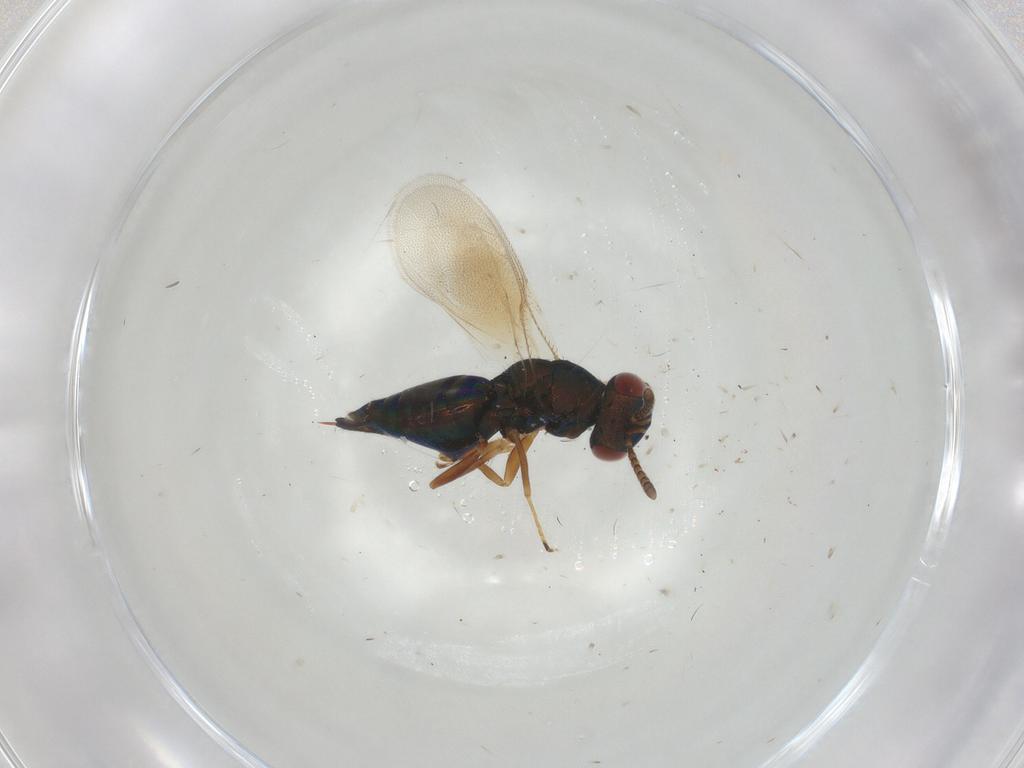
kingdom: Animalia
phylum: Arthropoda
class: Insecta
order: Hymenoptera
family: Pteromalidae
